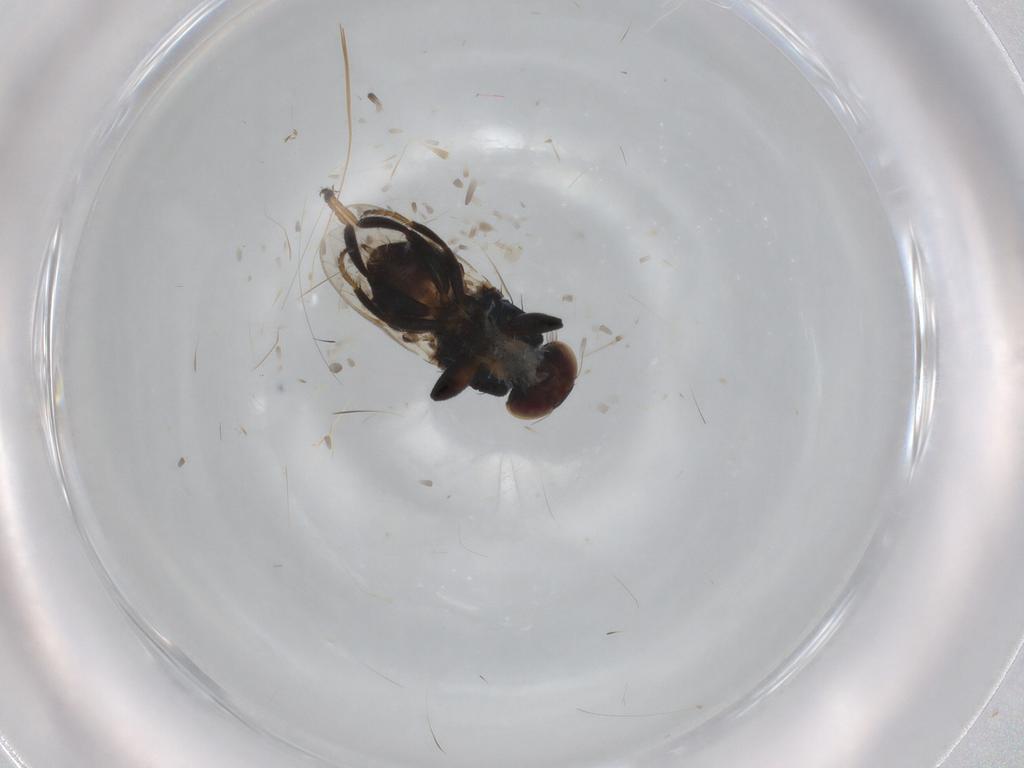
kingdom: Animalia
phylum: Arthropoda
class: Insecta
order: Diptera
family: Chloropidae
